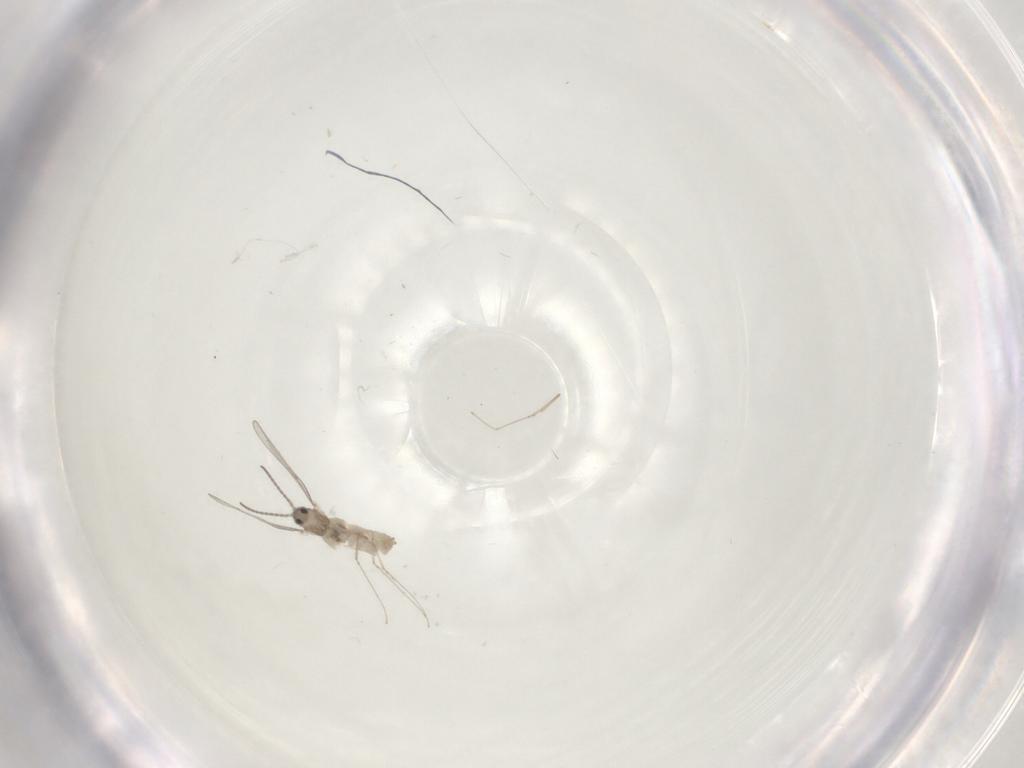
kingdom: Animalia
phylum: Arthropoda
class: Insecta
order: Diptera
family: Cecidomyiidae
